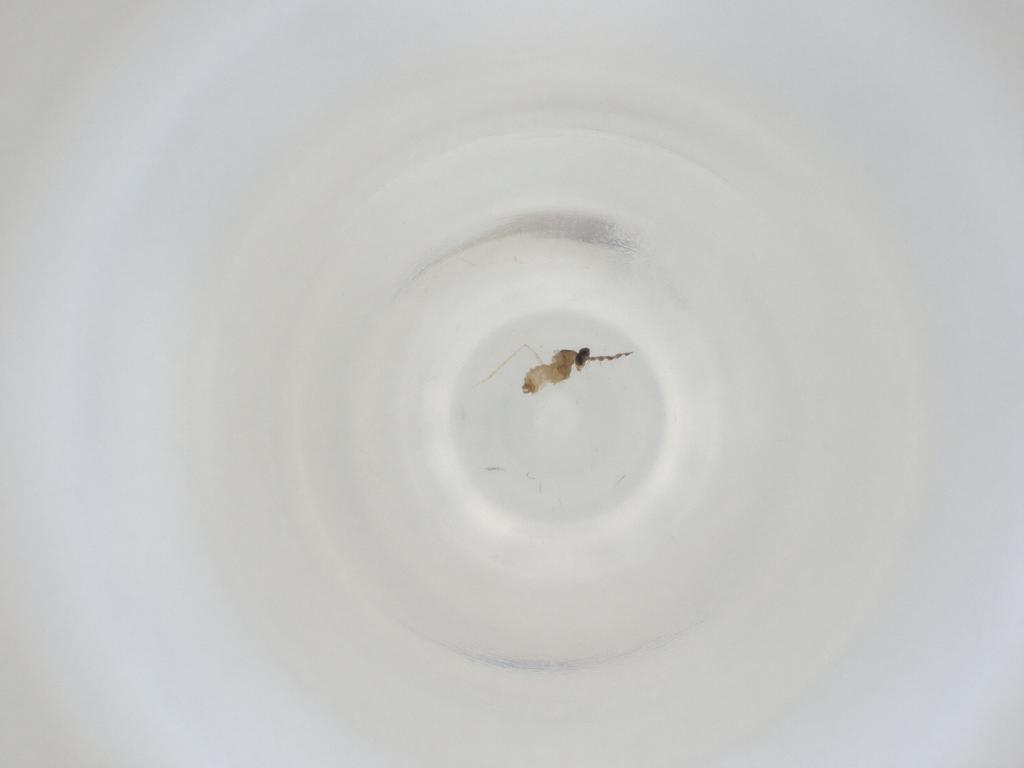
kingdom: Animalia
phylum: Arthropoda
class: Insecta
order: Diptera
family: Cecidomyiidae
